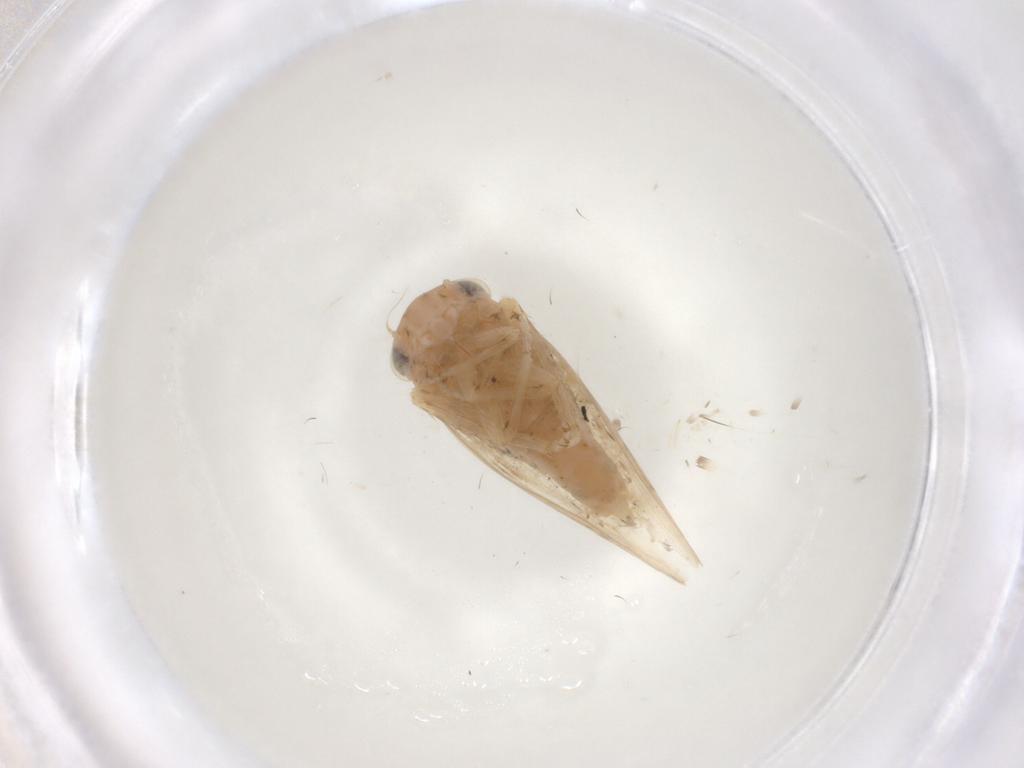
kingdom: Animalia
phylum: Arthropoda
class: Insecta
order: Hemiptera
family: Cicadellidae
